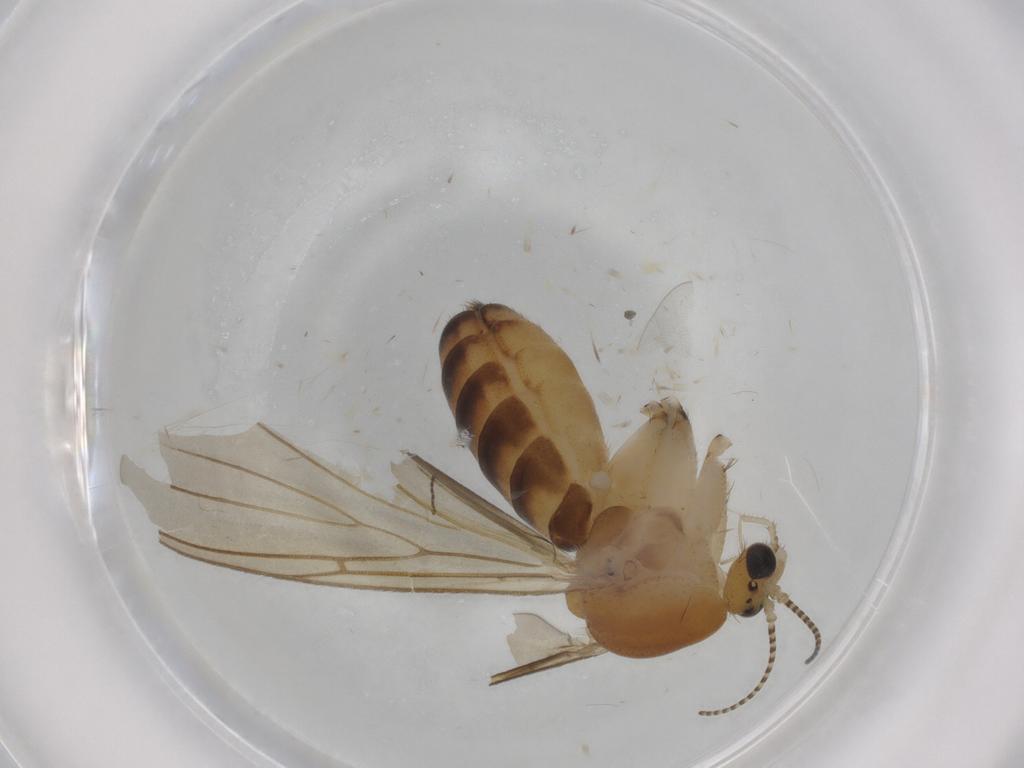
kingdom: Animalia
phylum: Arthropoda
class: Insecta
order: Diptera
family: Mycetophilidae
